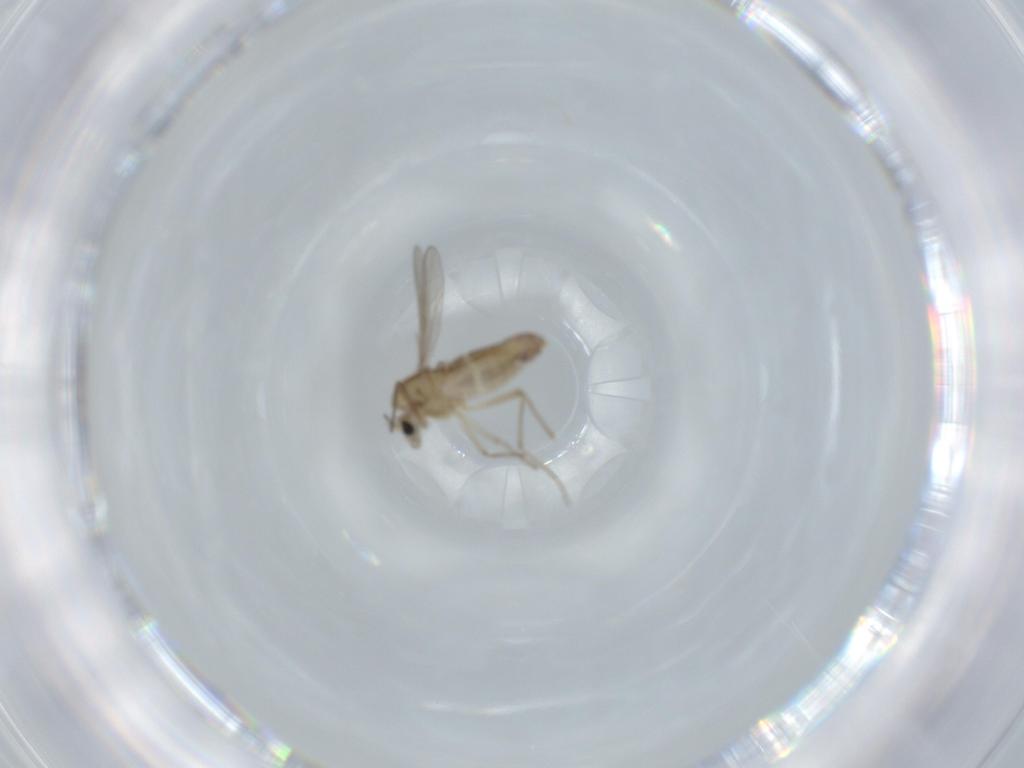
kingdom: Animalia
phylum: Arthropoda
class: Insecta
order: Diptera
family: Chironomidae
